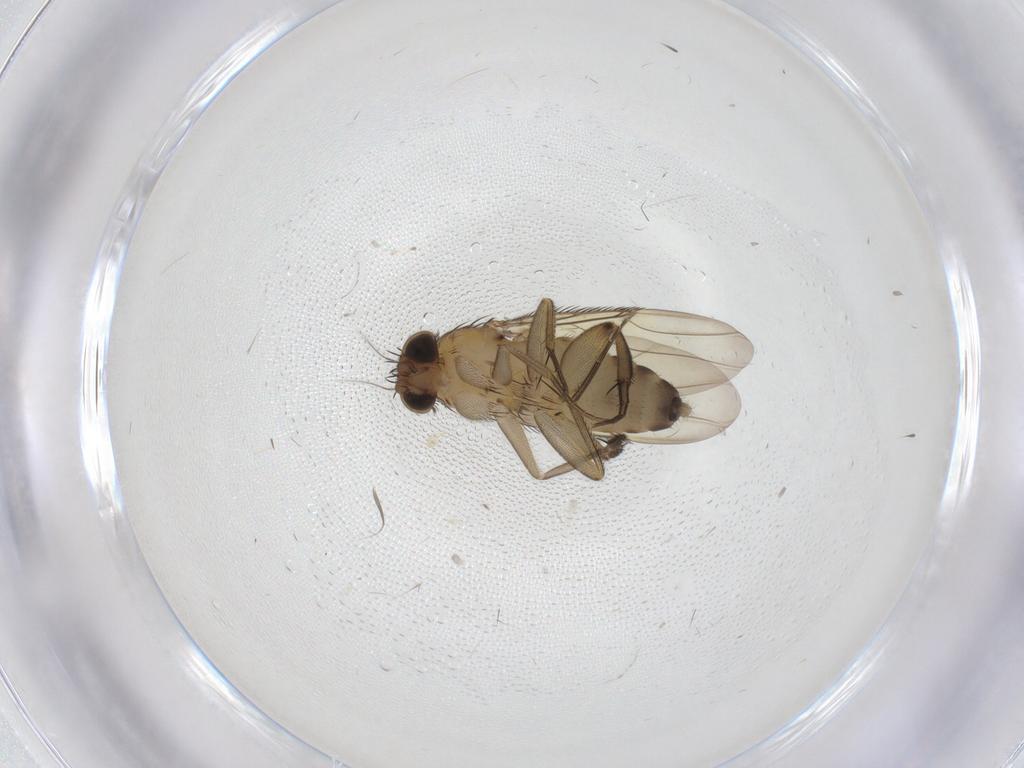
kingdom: Animalia
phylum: Arthropoda
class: Insecta
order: Diptera
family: Phoridae
